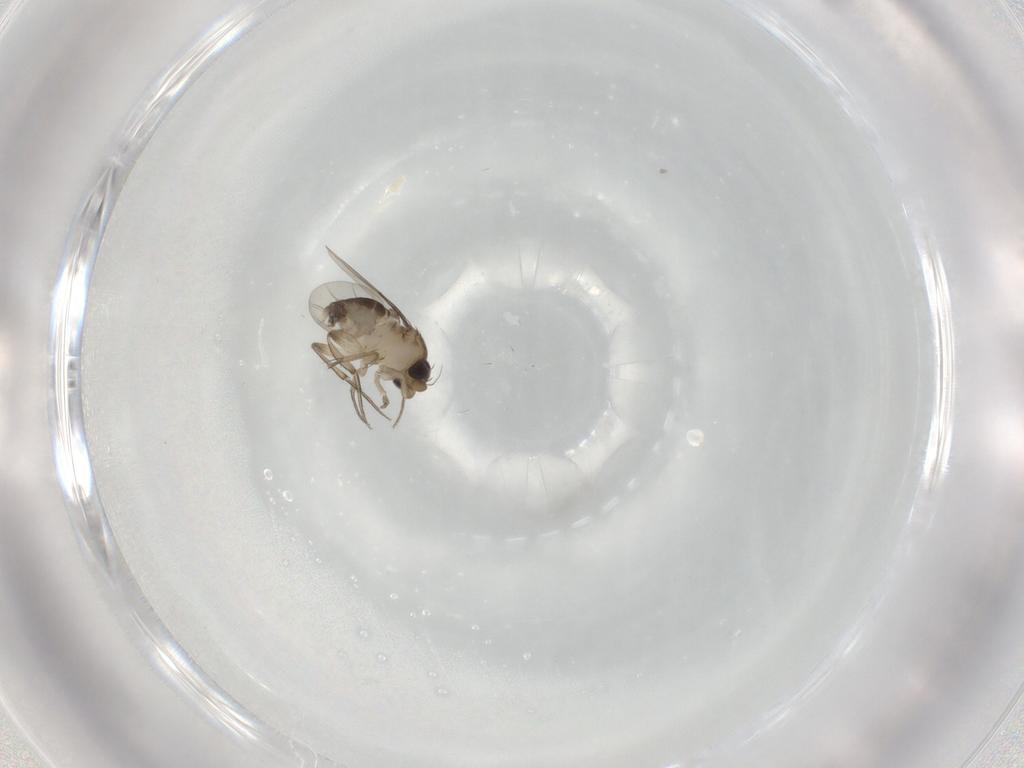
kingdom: Animalia
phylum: Arthropoda
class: Insecta
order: Diptera
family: Phoridae
